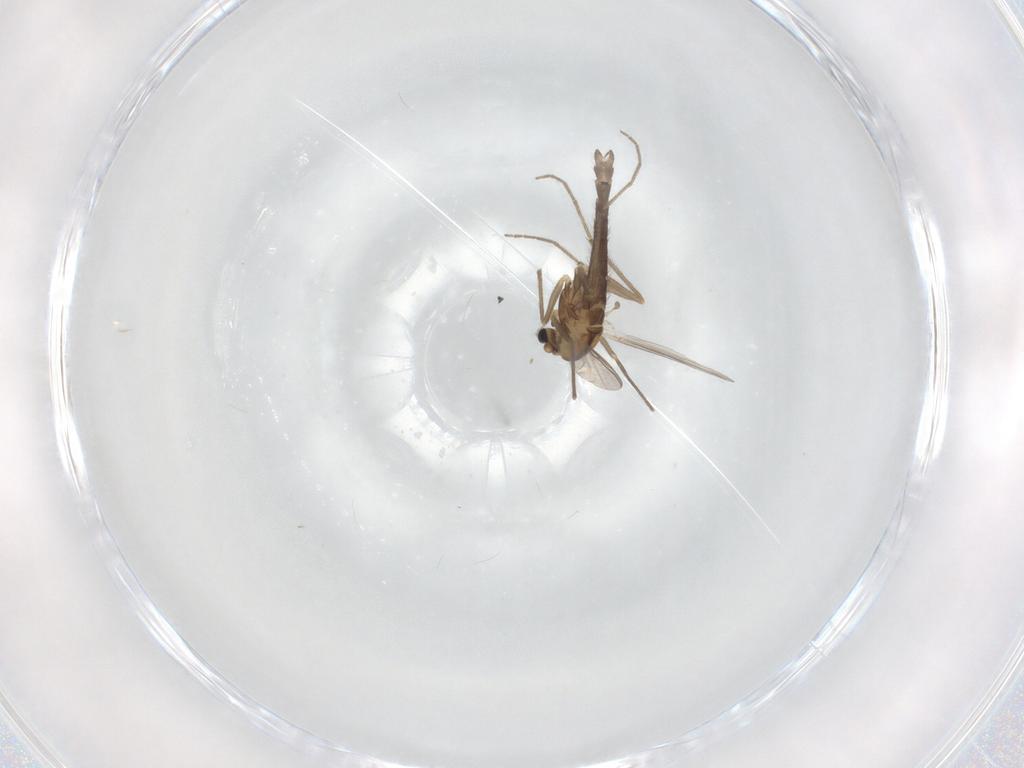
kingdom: Animalia
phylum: Arthropoda
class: Insecta
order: Diptera
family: Chironomidae
